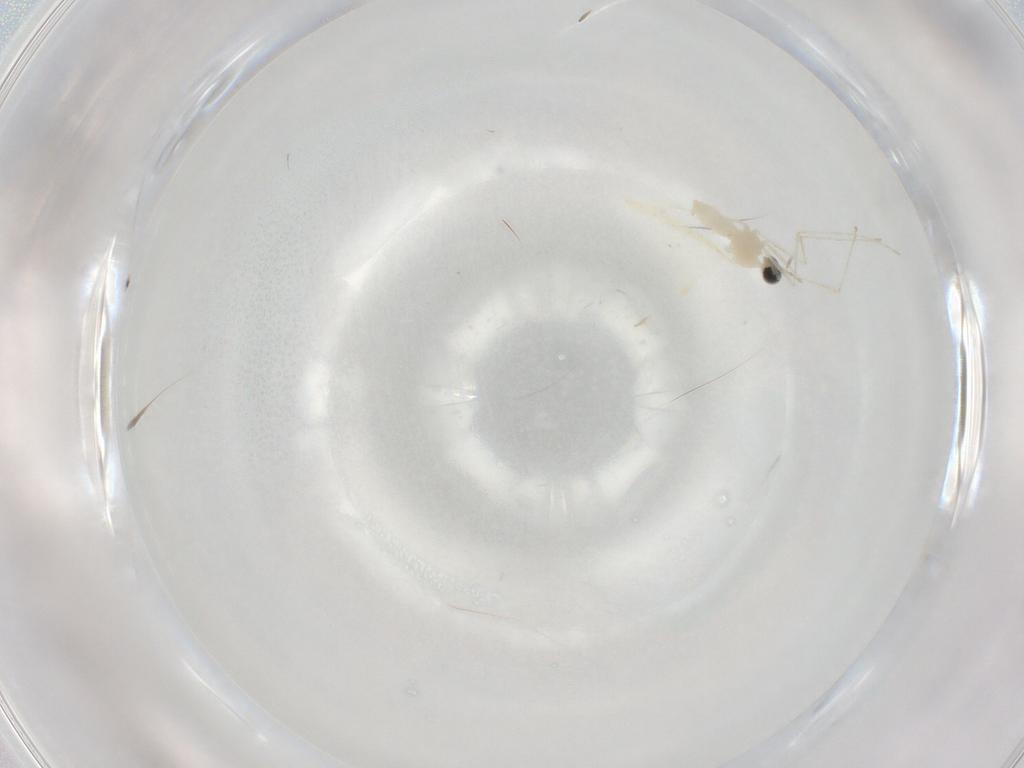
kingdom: Animalia
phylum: Arthropoda
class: Insecta
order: Diptera
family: Cecidomyiidae
